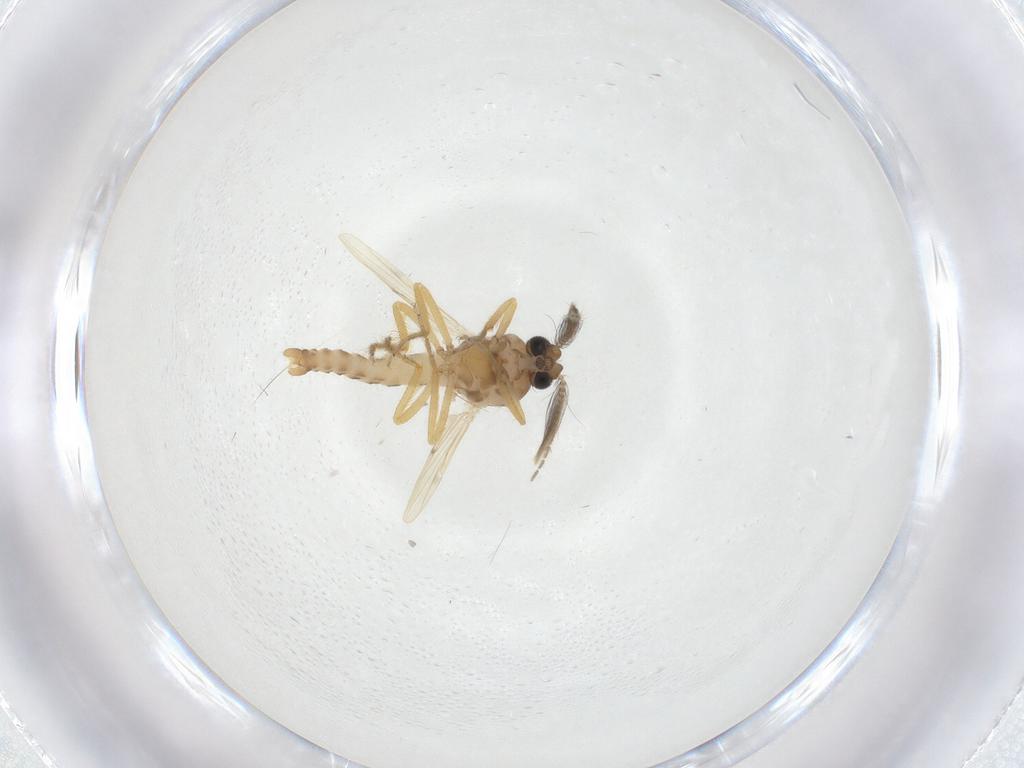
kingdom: Animalia
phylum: Arthropoda
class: Insecta
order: Diptera
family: Ceratopogonidae
